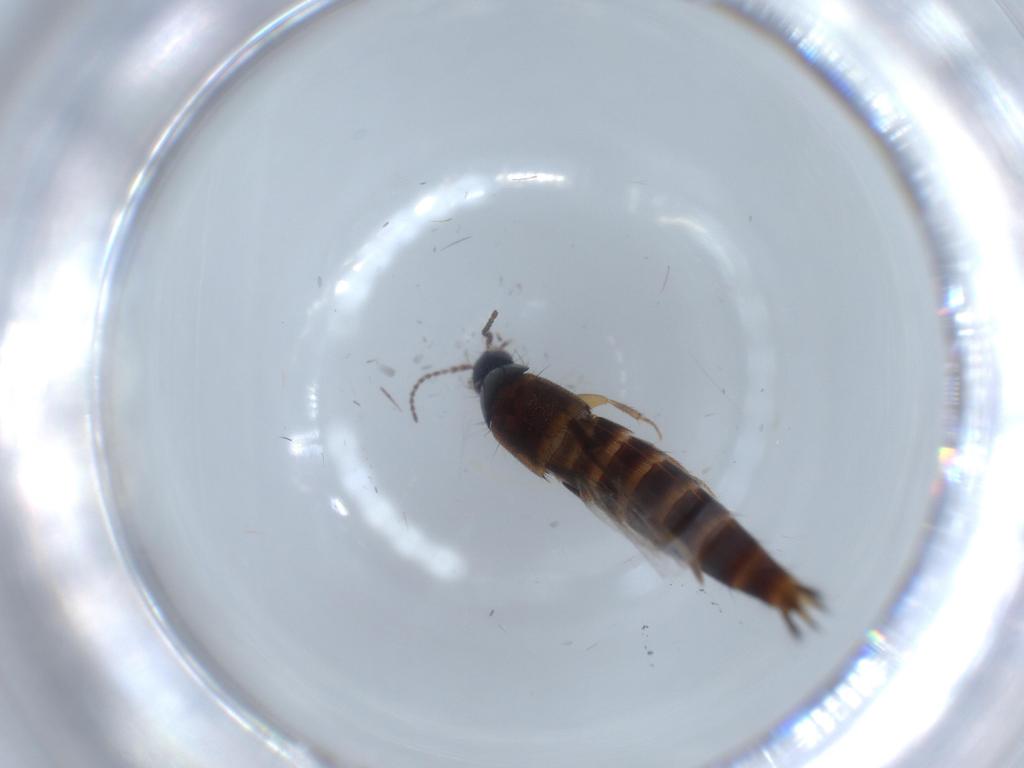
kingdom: Animalia
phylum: Arthropoda
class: Insecta
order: Coleoptera
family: Staphylinidae
